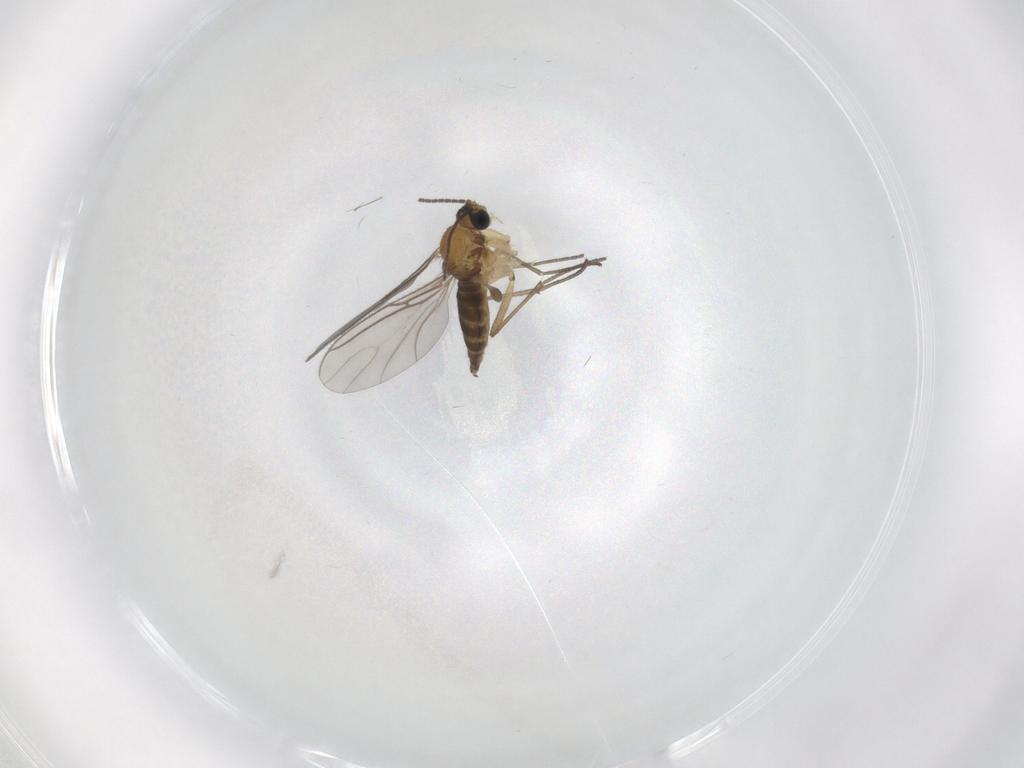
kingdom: Animalia
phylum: Arthropoda
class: Insecta
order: Diptera
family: Sciaridae
